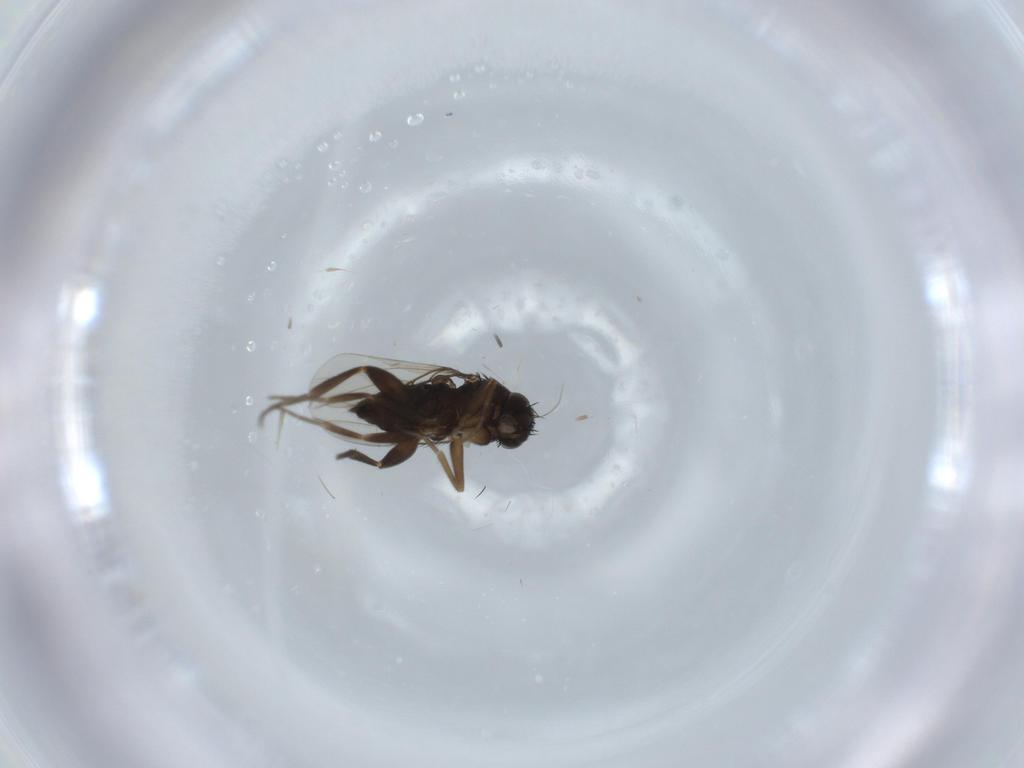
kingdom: Animalia
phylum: Arthropoda
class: Insecta
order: Diptera
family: Cecidomyiidae
